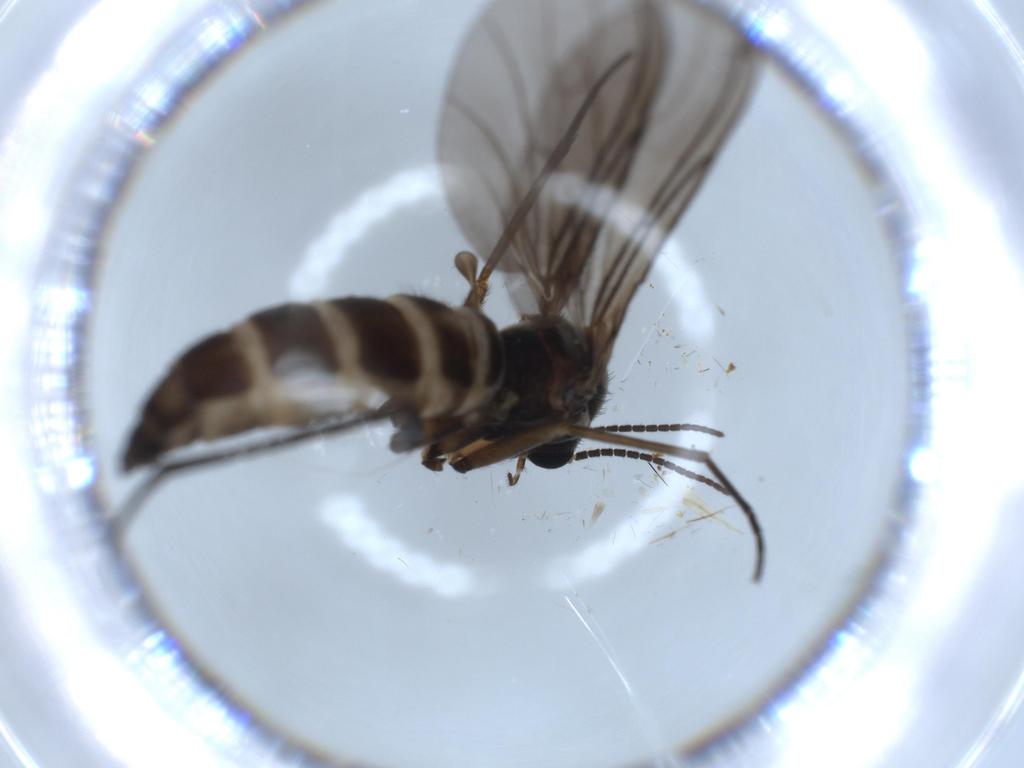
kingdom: Animalia
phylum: Arthropoda
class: Insecta
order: Diptera
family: Sciaridae
